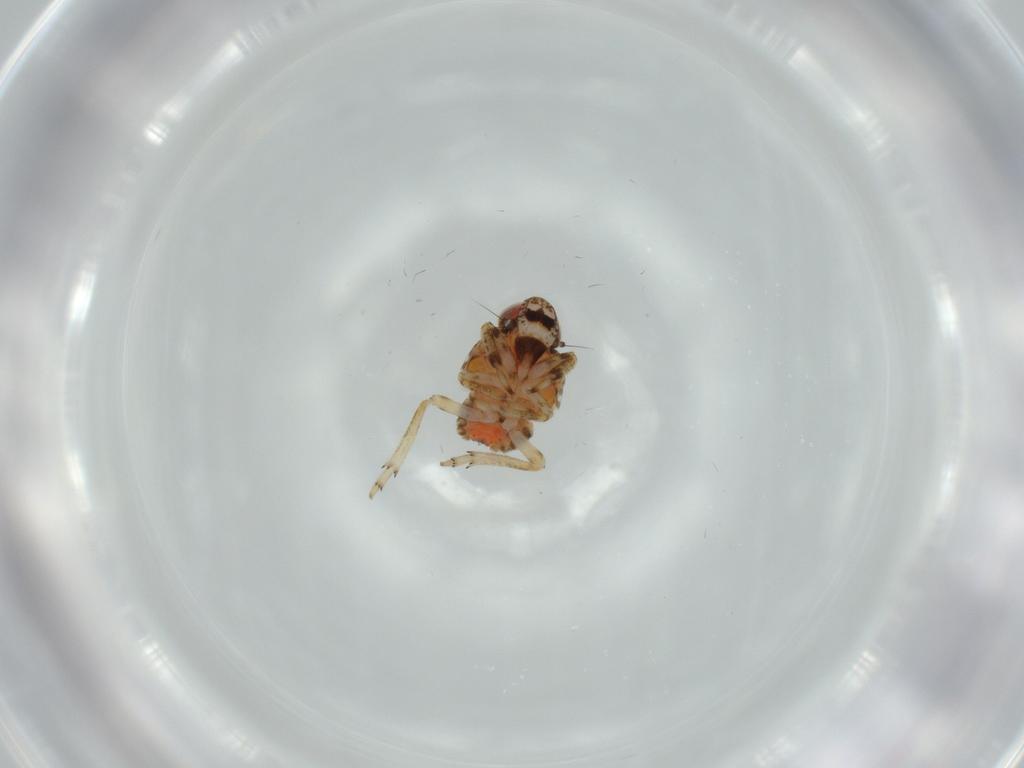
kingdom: Animalia
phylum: Arthropoda
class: Insecta
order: Hemiptera
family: Issidae
